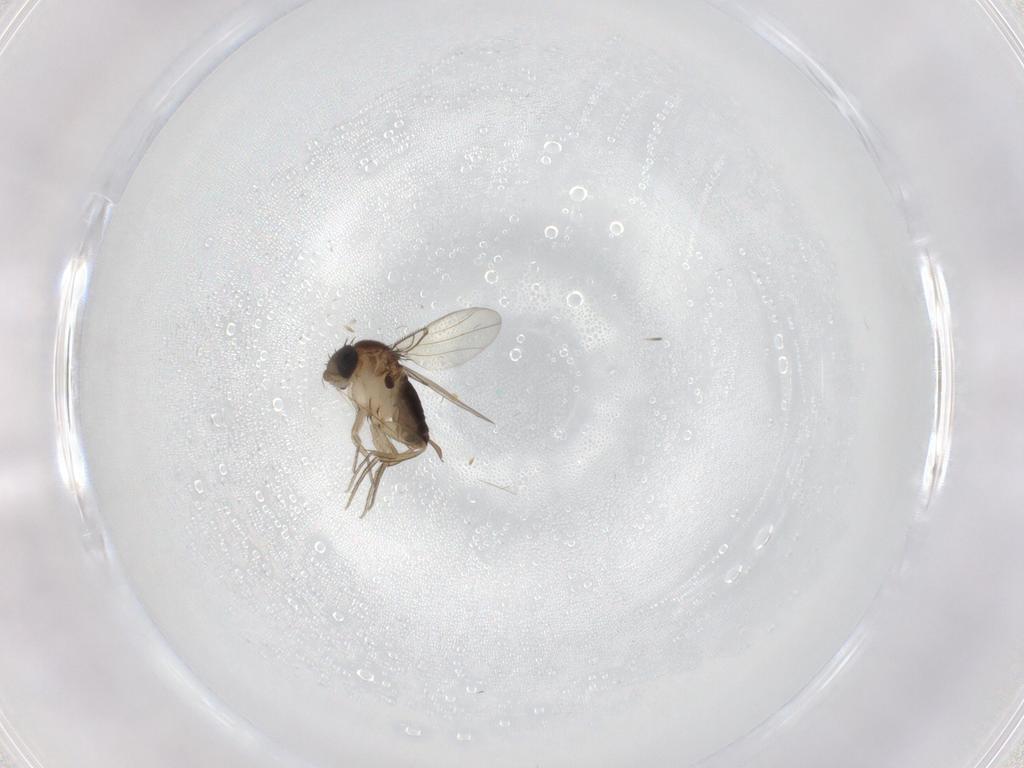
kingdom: Animalia
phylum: Arthropoda
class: Insecta
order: Diptera
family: Phoridae
